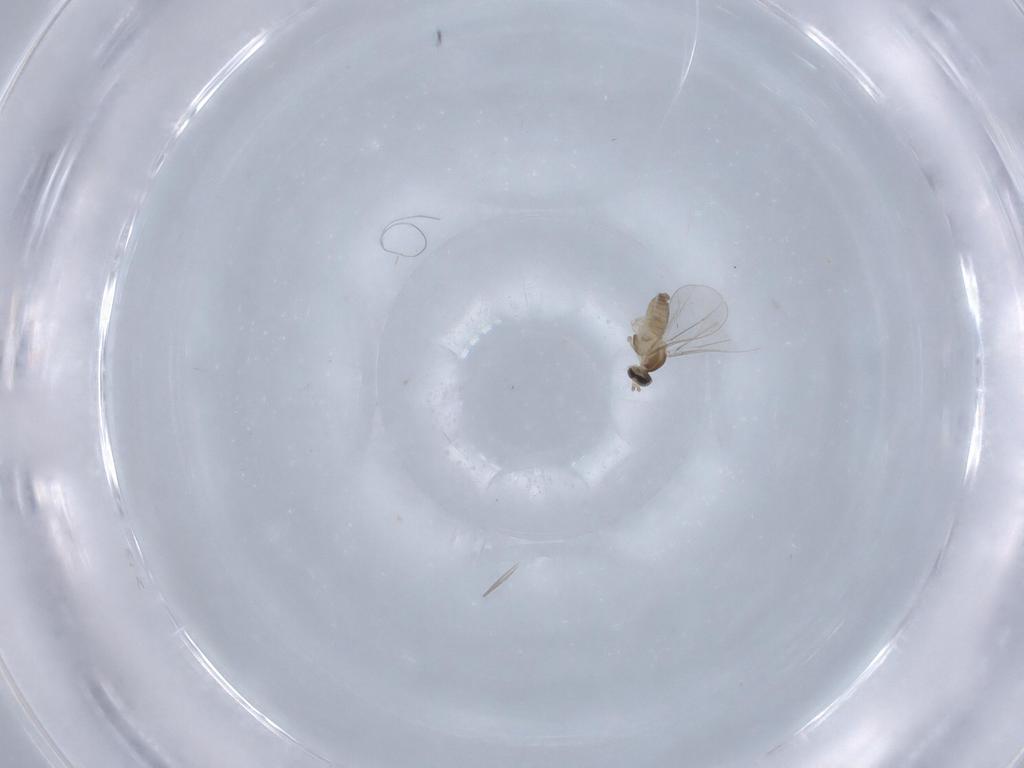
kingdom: Animalia
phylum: Arthropoda
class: Insecta
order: Diptera
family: Cecidomyiidae
